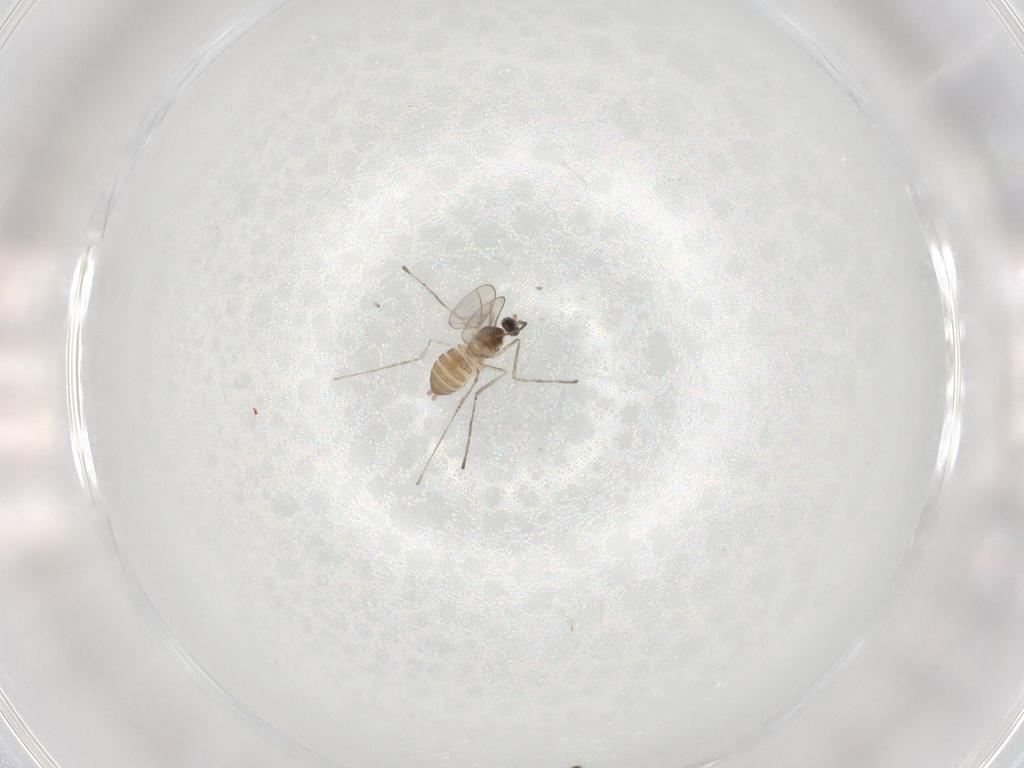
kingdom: Animalia
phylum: Arthropoda
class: Insecta
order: Diptera
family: Cecidomyiidae
